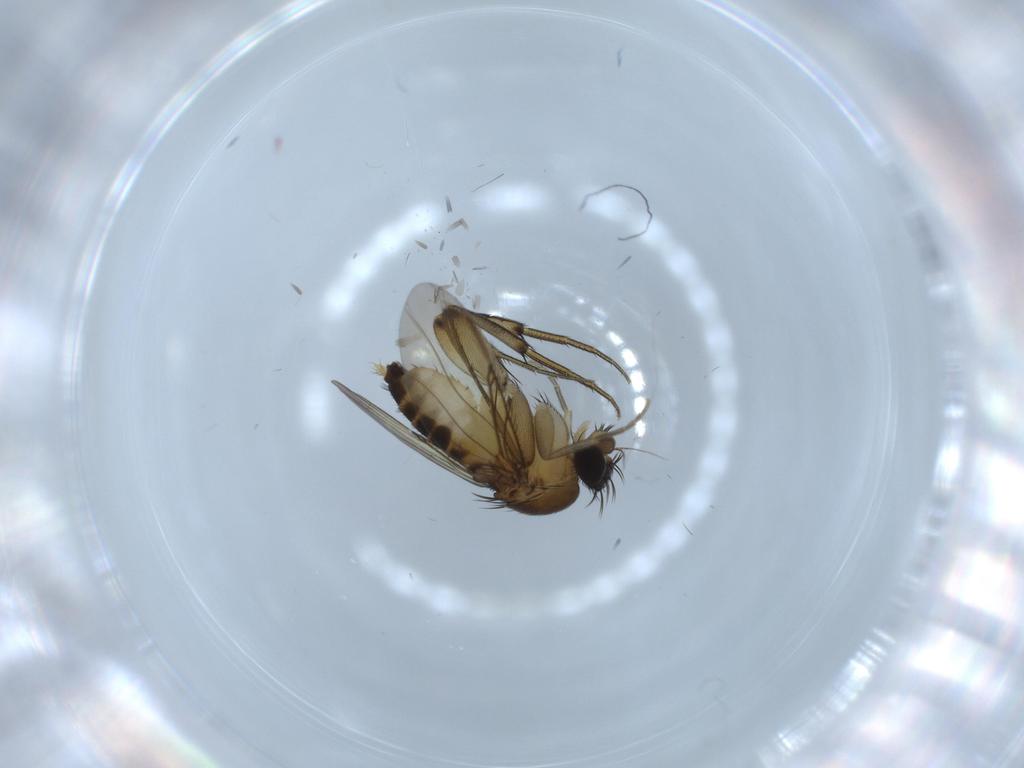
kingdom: Animalia
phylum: Arthropoda
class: Insecta
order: Diptera
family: Phoridae
